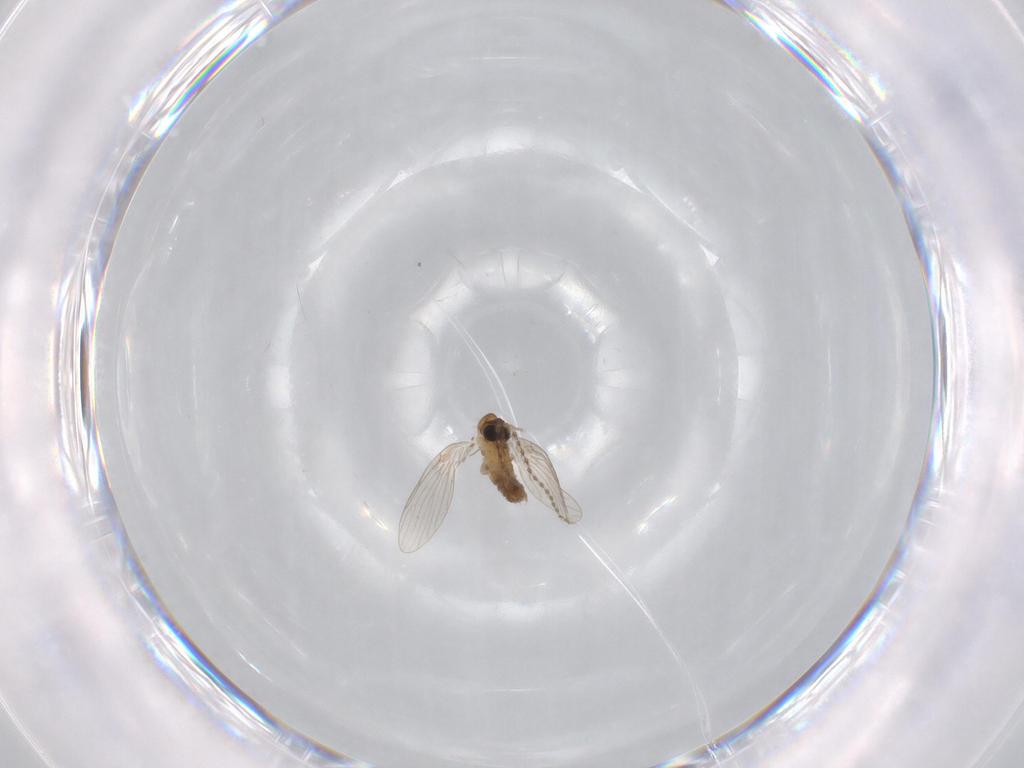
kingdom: Animalia
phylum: Arthropoda
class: Insecta
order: Diptera
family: Psychodidae
